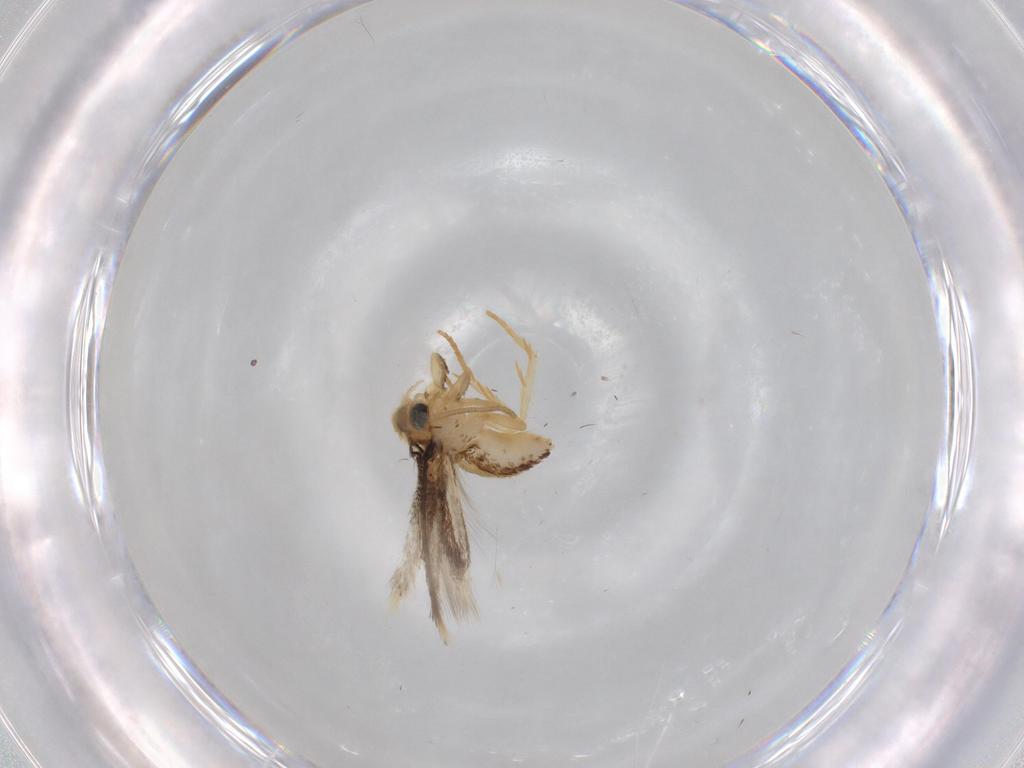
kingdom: Animalia
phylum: Arthropoda
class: Insecta
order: Lepidoptera
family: Nepticulidae
